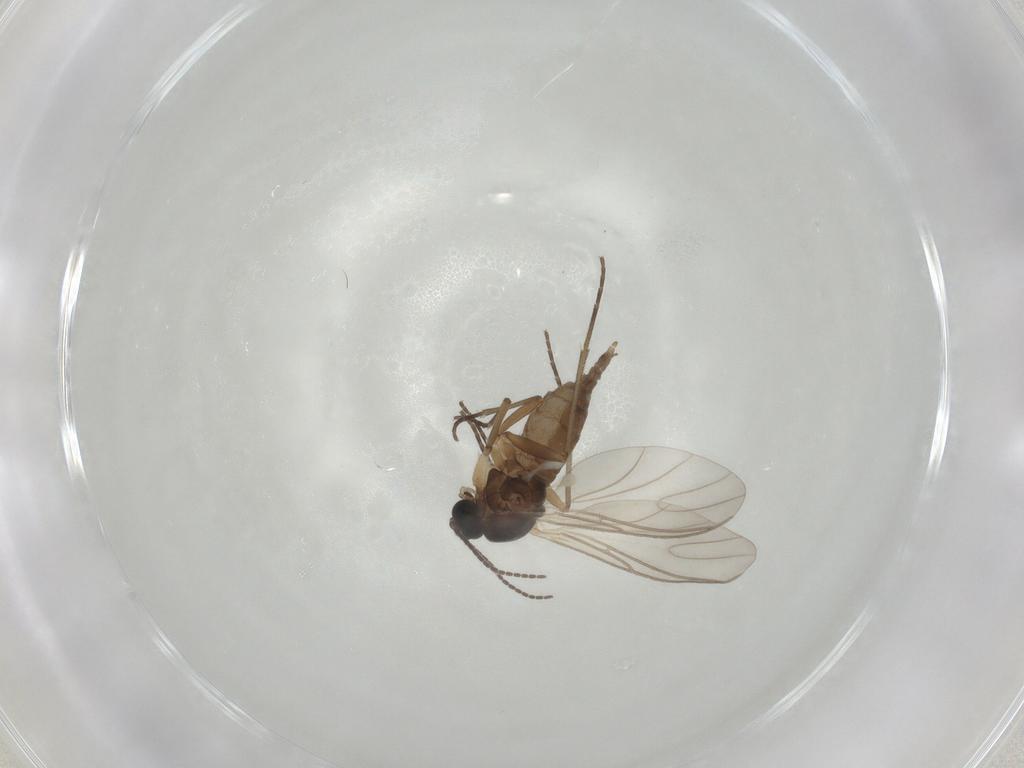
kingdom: Animalia
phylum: Arthropoda
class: Insecta
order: Diptera
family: Sciaridae
